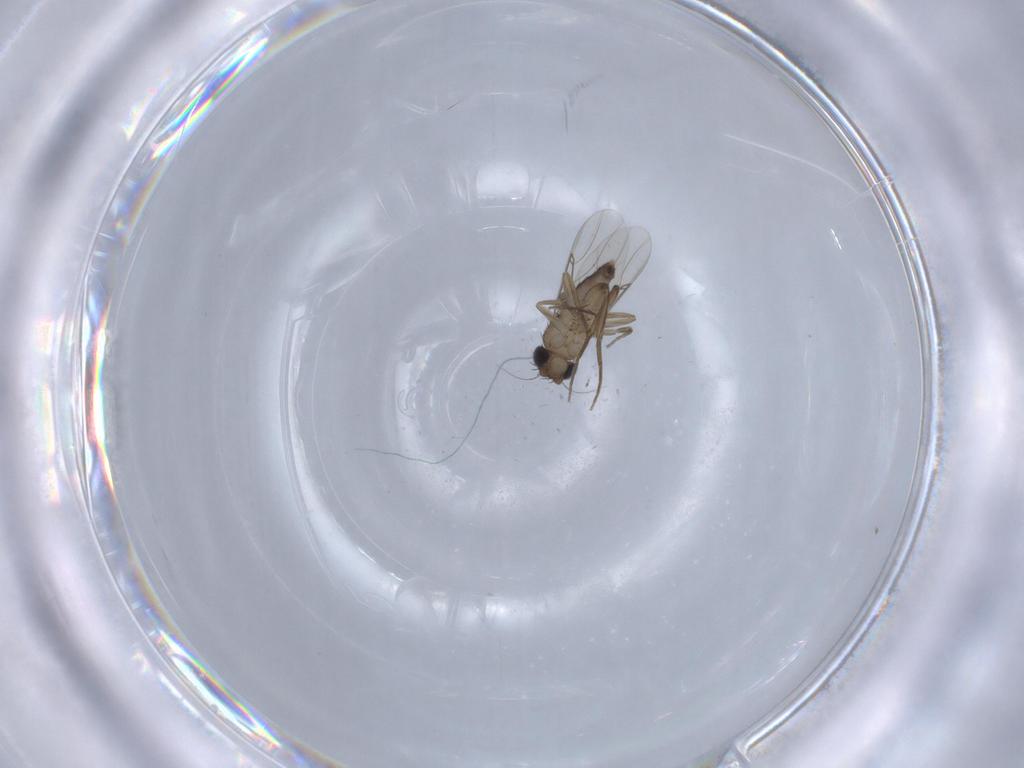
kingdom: Animalia
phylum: Arthropoda
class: Insecta
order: Diptera
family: Phoridae
